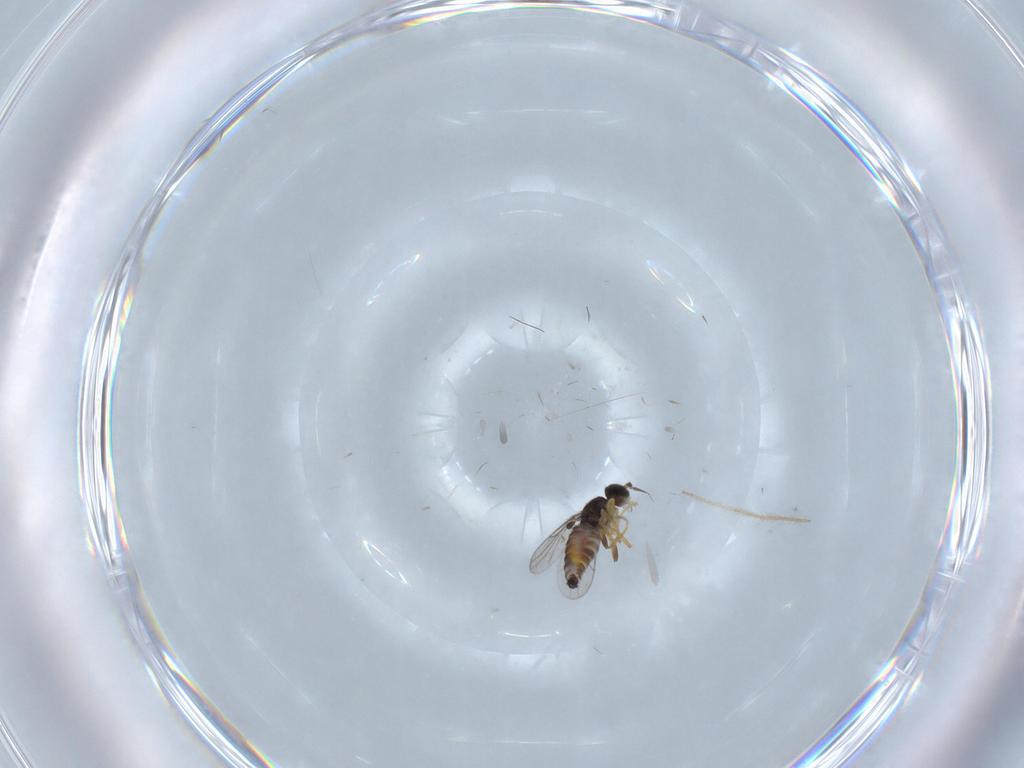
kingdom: Animalia
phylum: Arthropoda
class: Insecta
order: Diptera
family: Hybotidae
